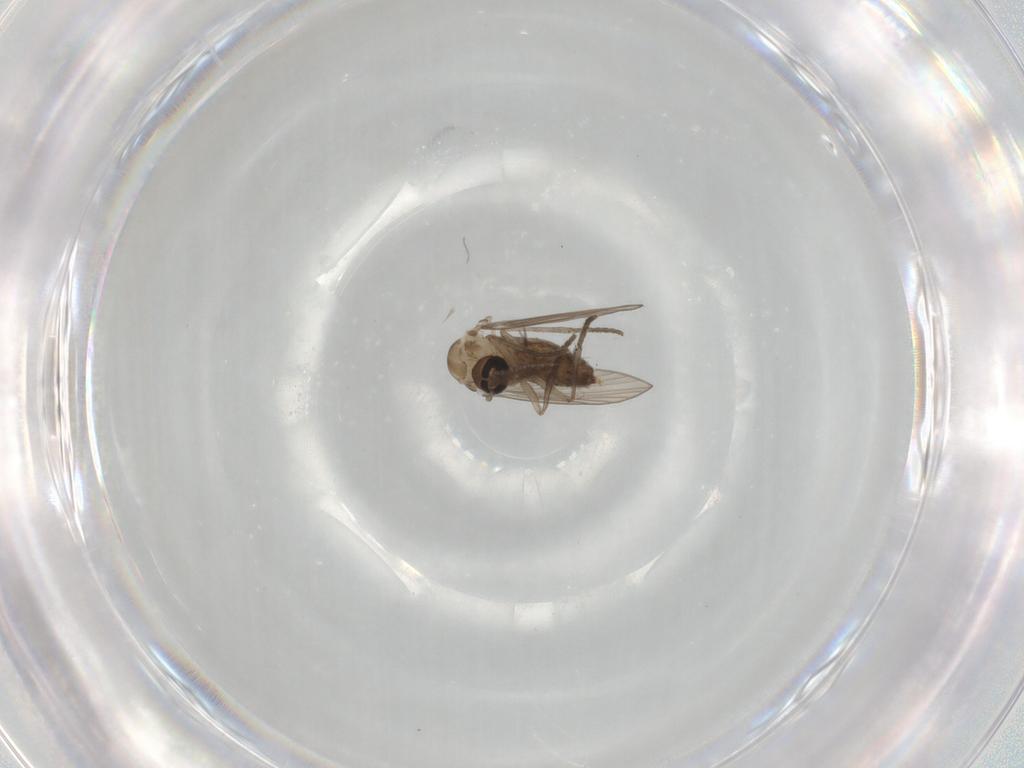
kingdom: Animalia
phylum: Arthropoda
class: Insecta
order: Diptera
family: Psychodidae
